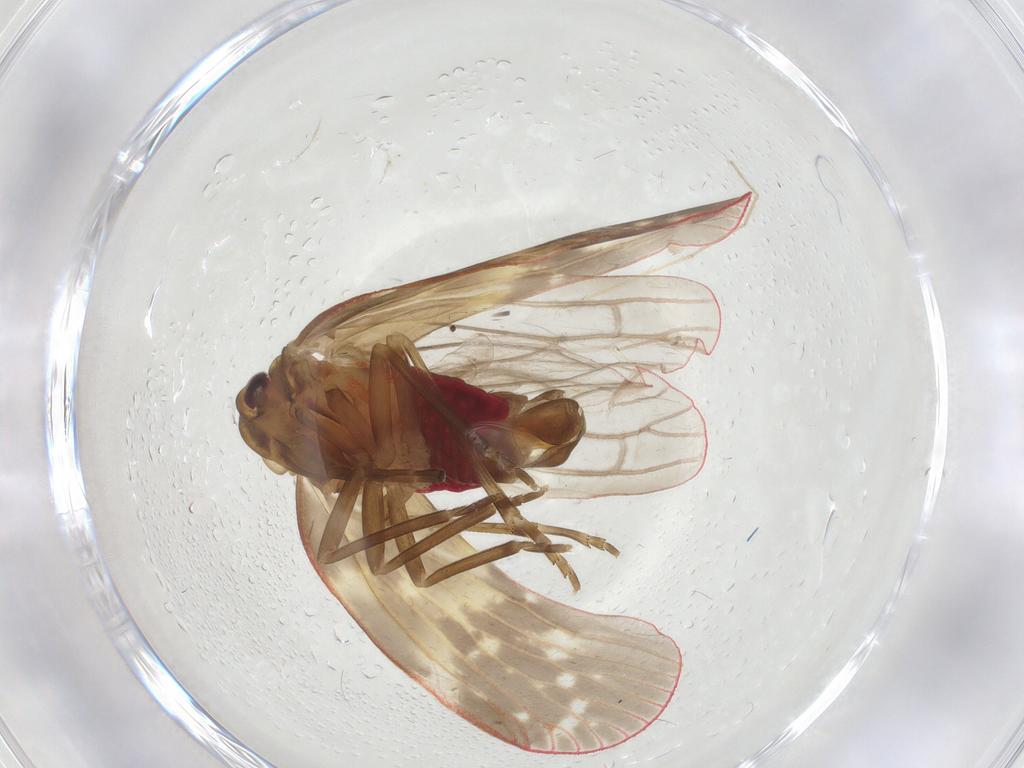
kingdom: Animalia
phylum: Arthropoda
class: Insecta
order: Hemiptera
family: Achilidae
